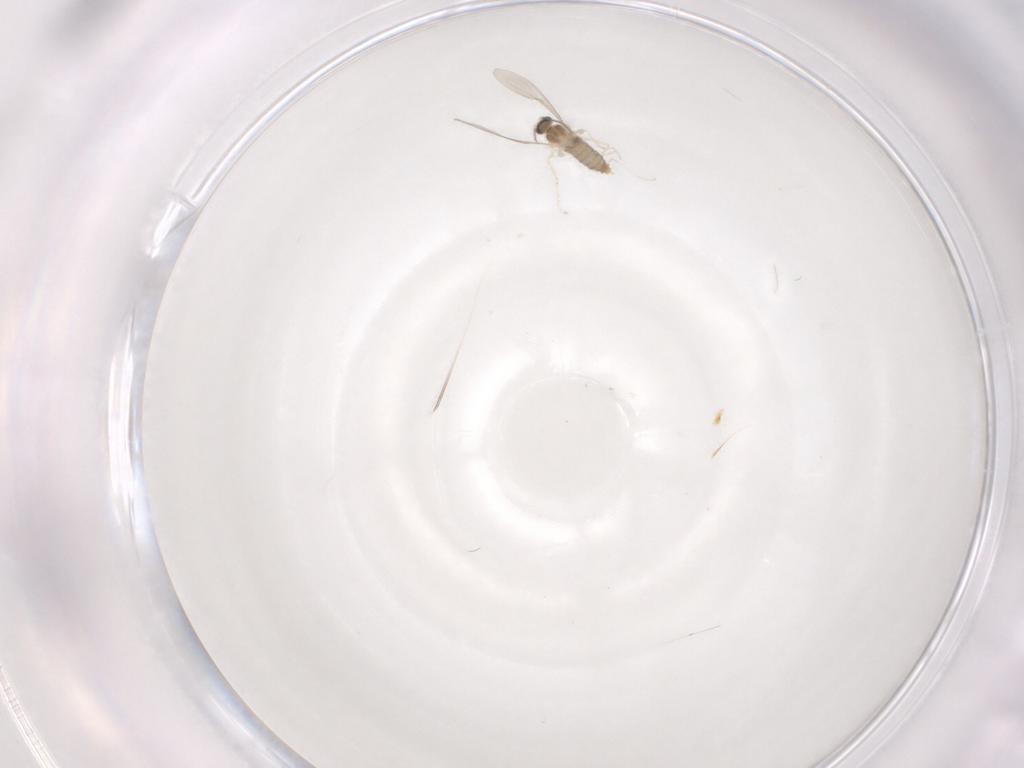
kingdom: Animalia
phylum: Arthropoda
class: Insecta
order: Diptera
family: Cecidomyiidae
